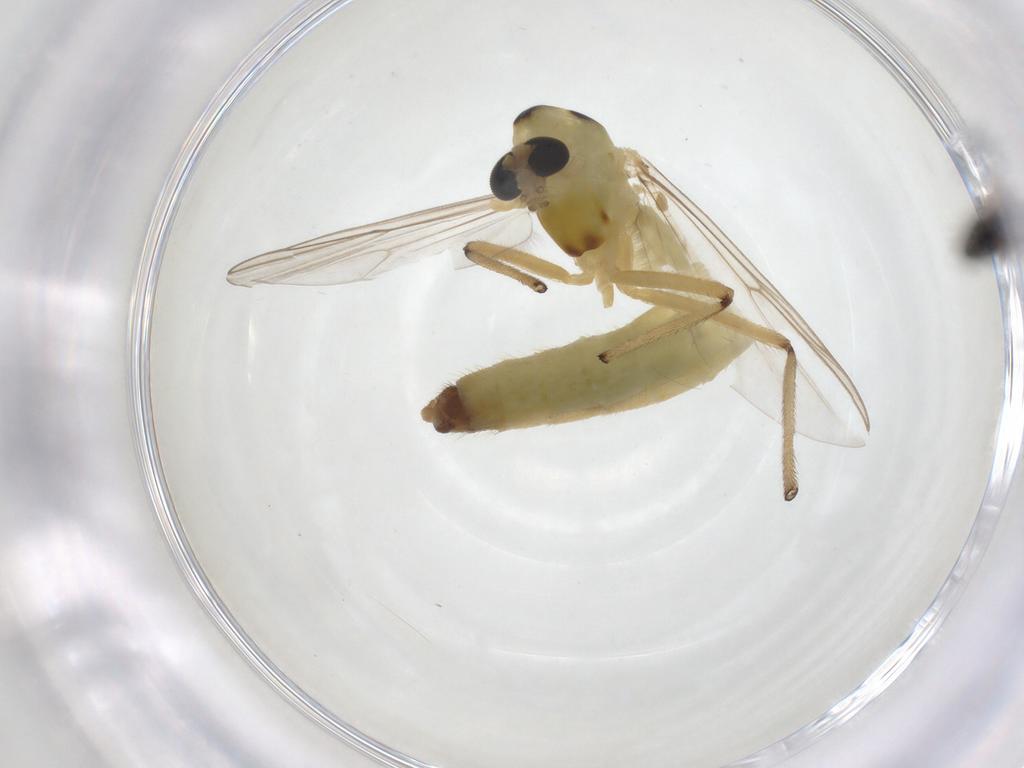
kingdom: Animalia
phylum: Arthropoda
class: Insecta
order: Diptera
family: Chironomidae
